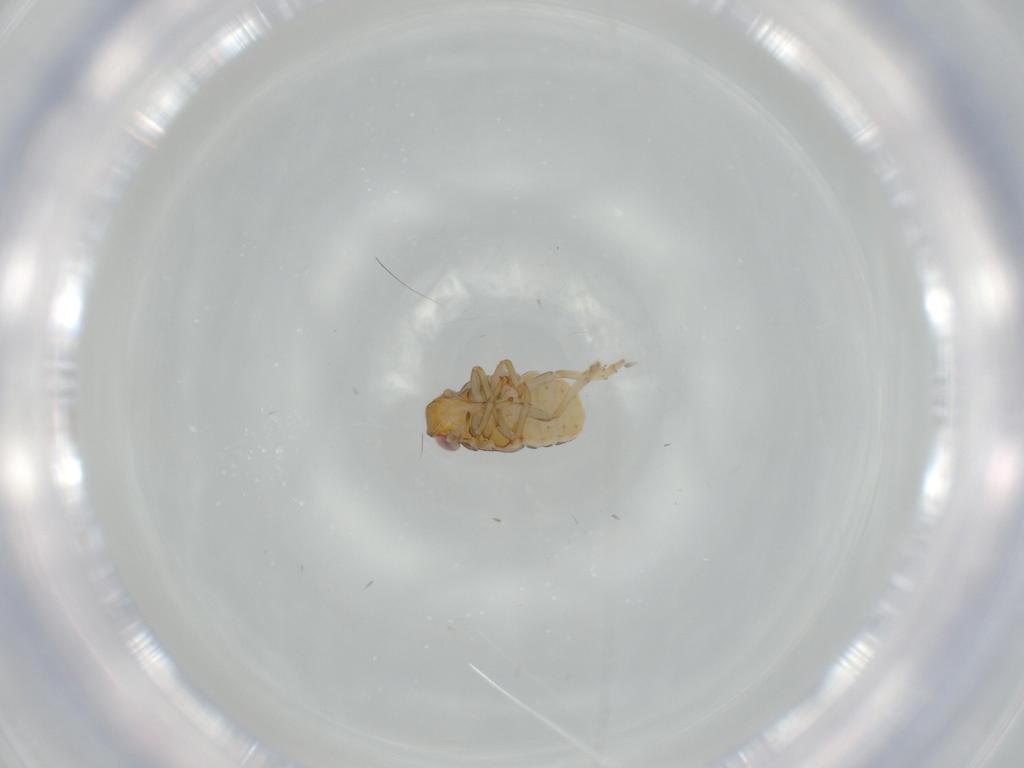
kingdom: Animalia
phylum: Arthropoda
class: Insecta
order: Hemiptera
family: Issidae
